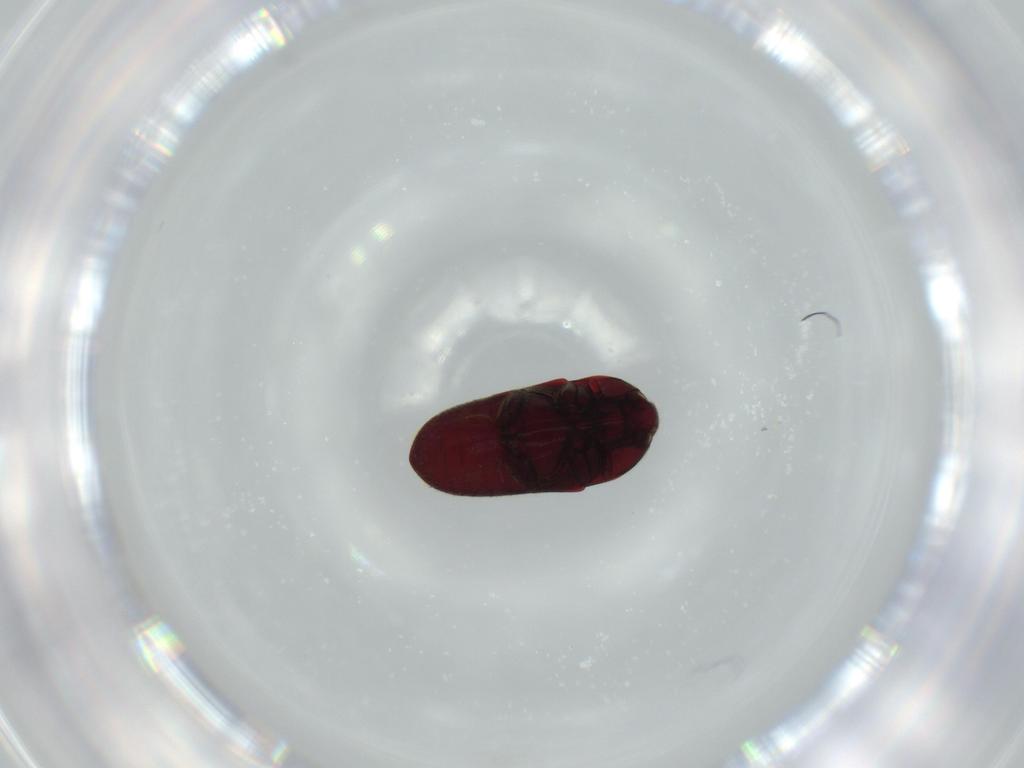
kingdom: Animalia
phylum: Arthropoda
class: Insecta
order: Coleoptera
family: Throscidae
